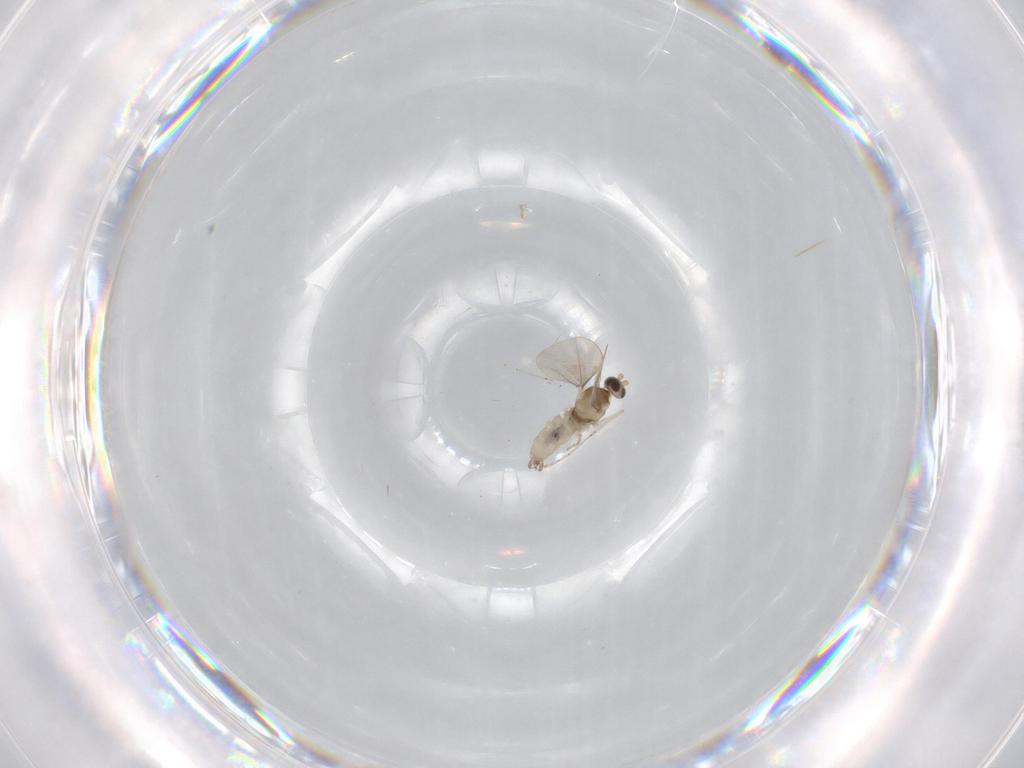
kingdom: Animalia
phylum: Arthropoda
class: Insecta
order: Diptera
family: Cecidomyiidae
